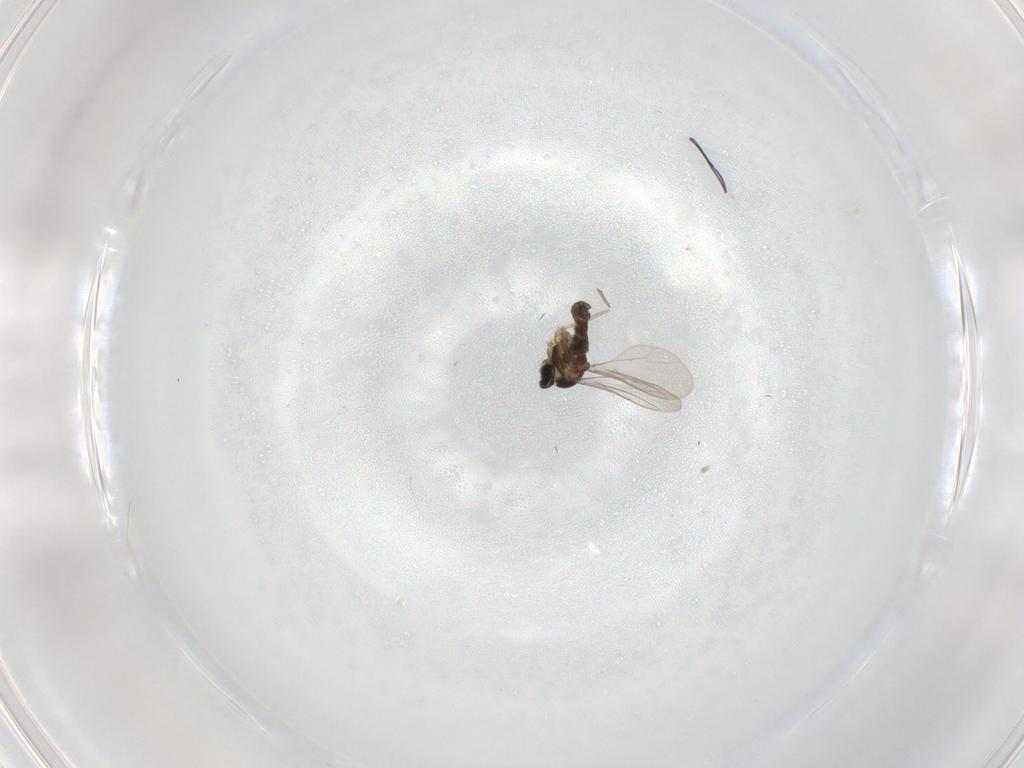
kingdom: Animalia
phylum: Arthropoda
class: Insecta
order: Diptera
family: Cecidomyiidae
